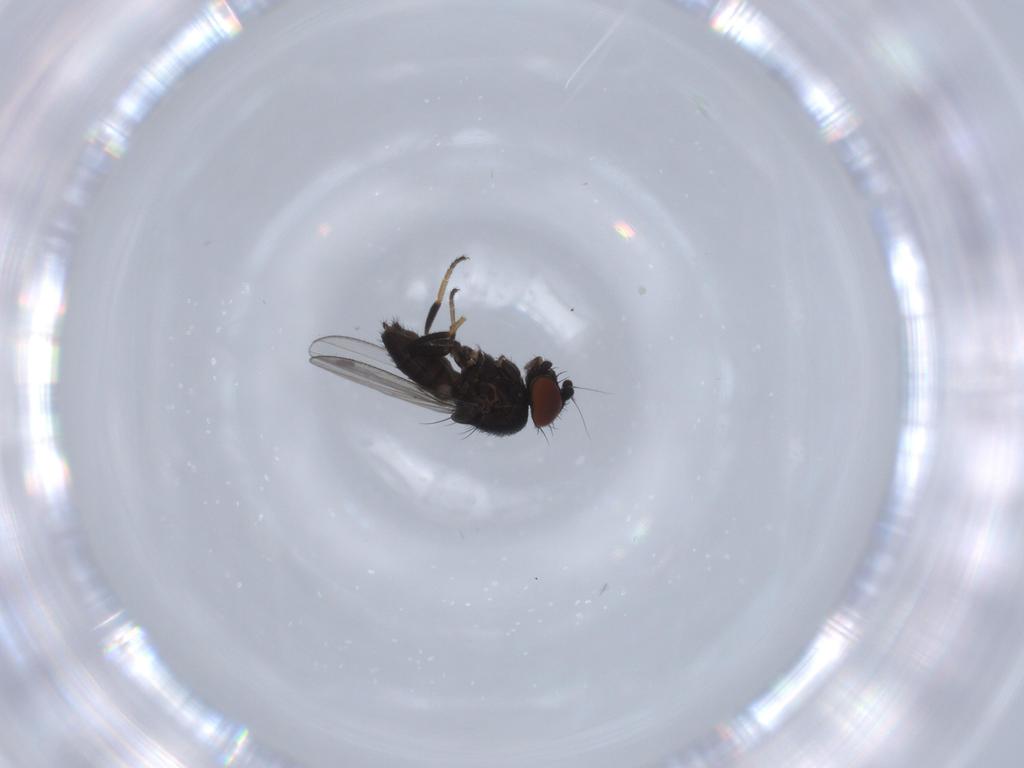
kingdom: Animalia
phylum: Arthropoda
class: Insecta
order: Diptera
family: Milichiidae
